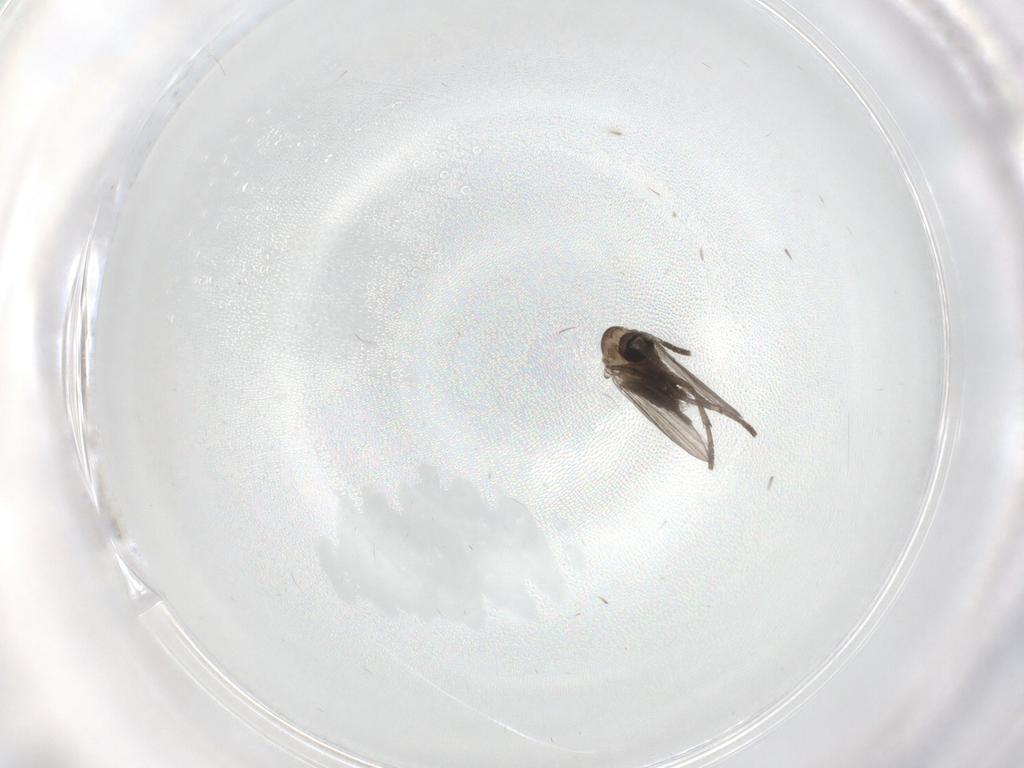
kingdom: Animalia
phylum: Arthropoda
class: Insecta
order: Diptera
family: Psychodidae
